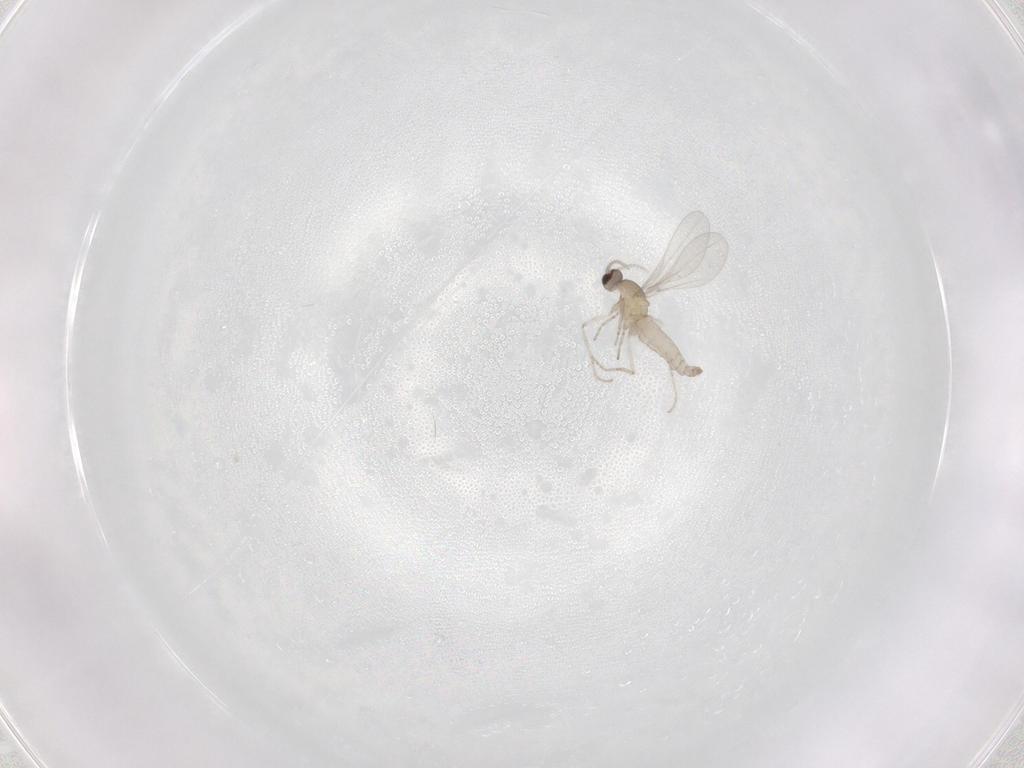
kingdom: Animalia
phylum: Arthropoda
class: Insecta
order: Diptera
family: Cecidomyiidae
